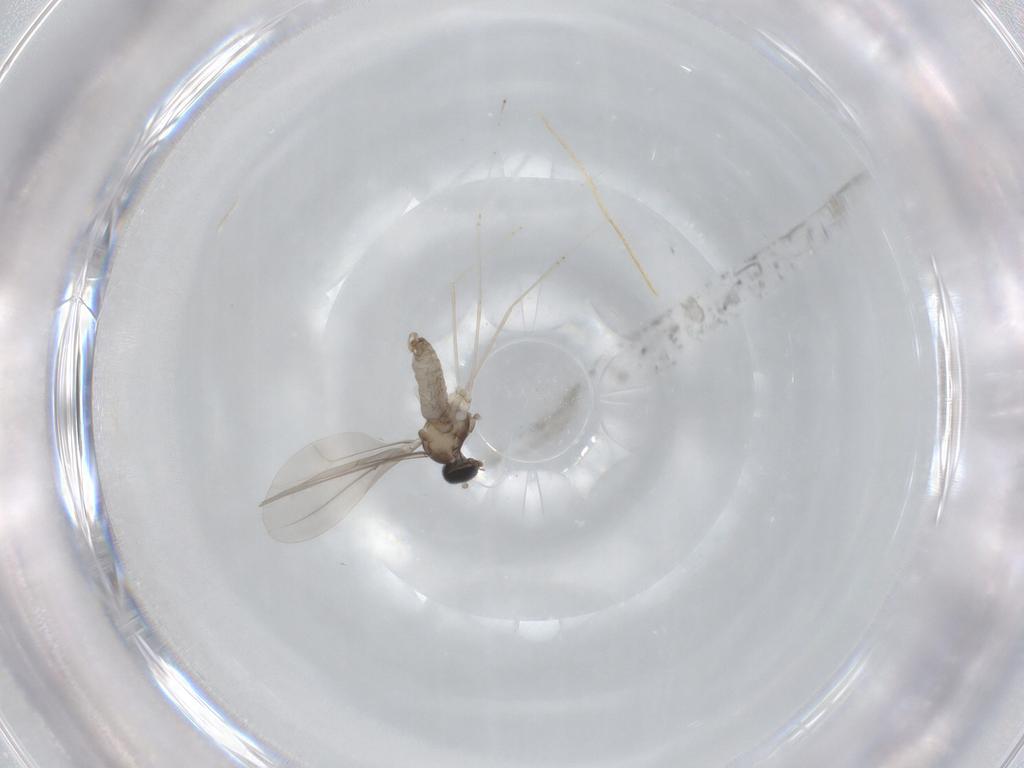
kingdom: Animalia
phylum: Arthropoda
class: Insecta
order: Diptera
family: Cecidomyiidae
